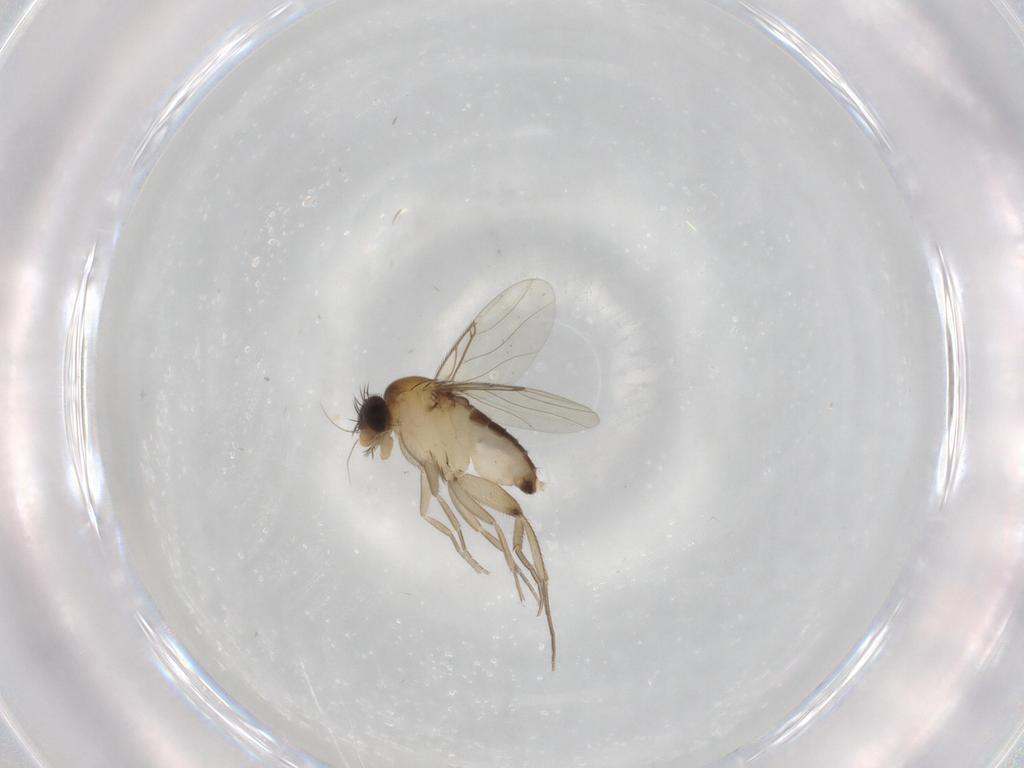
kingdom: Animalia
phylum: Arthropoda
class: Insecta
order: Diptera
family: Phoridae
